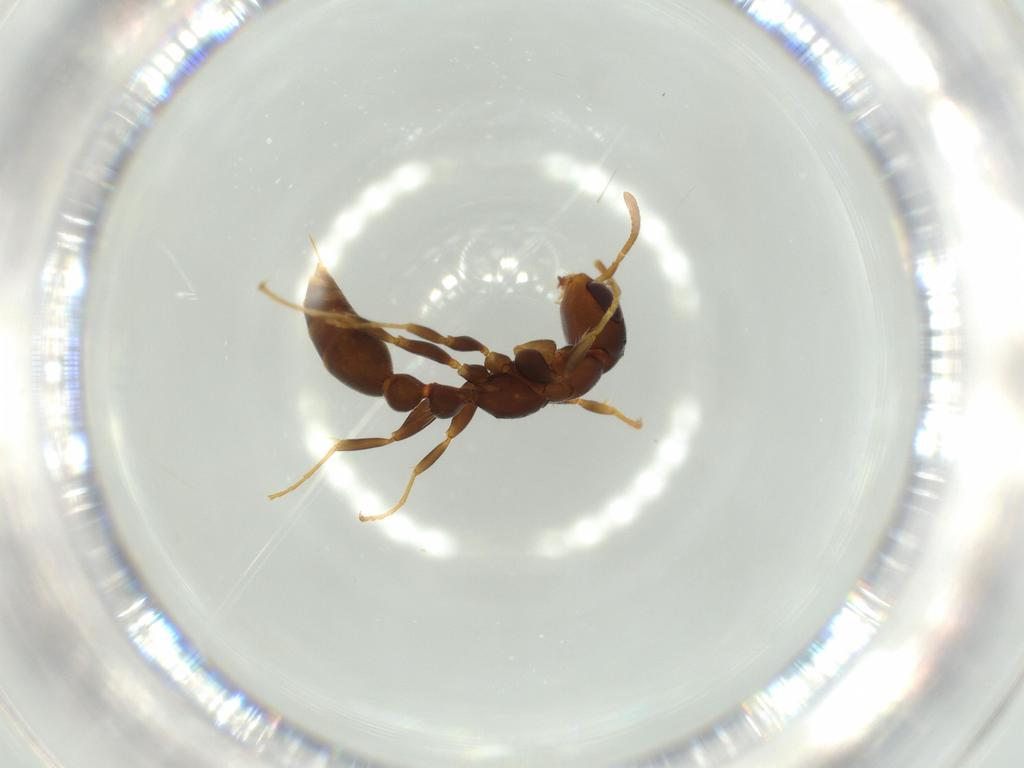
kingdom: Animalia
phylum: Arthropoda
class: Insecta
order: Hymenoptera
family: Formicidae
